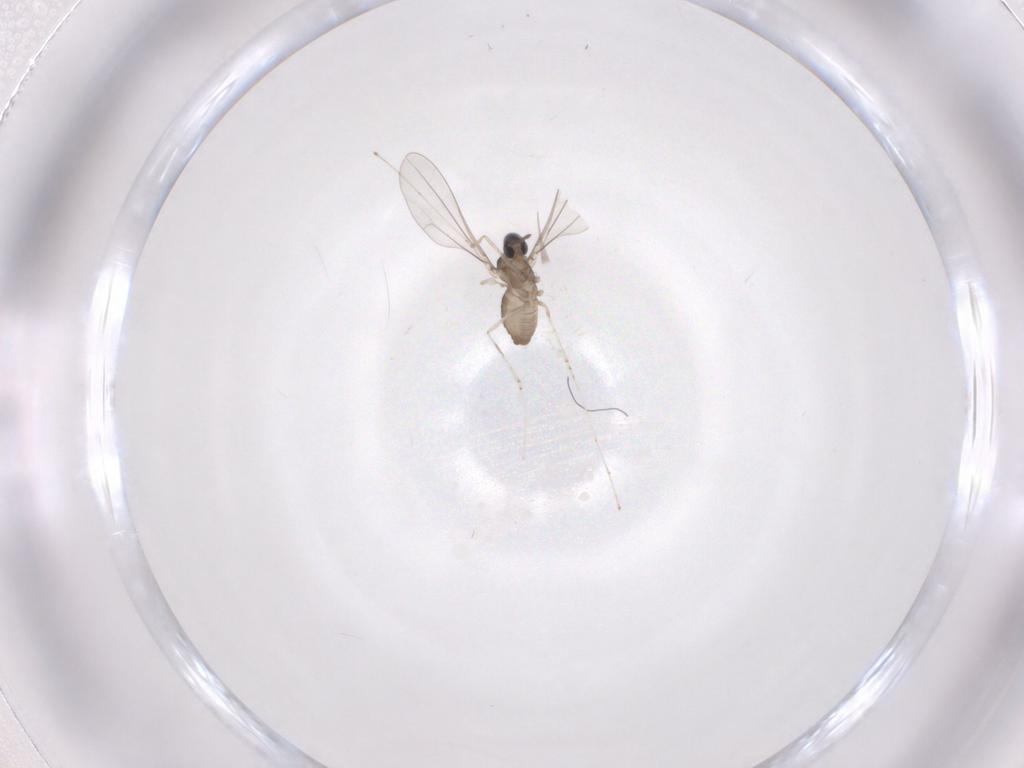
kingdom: Animalia
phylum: Arthropoda
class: Insecta
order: Diptera
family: Cecidomyiidae
